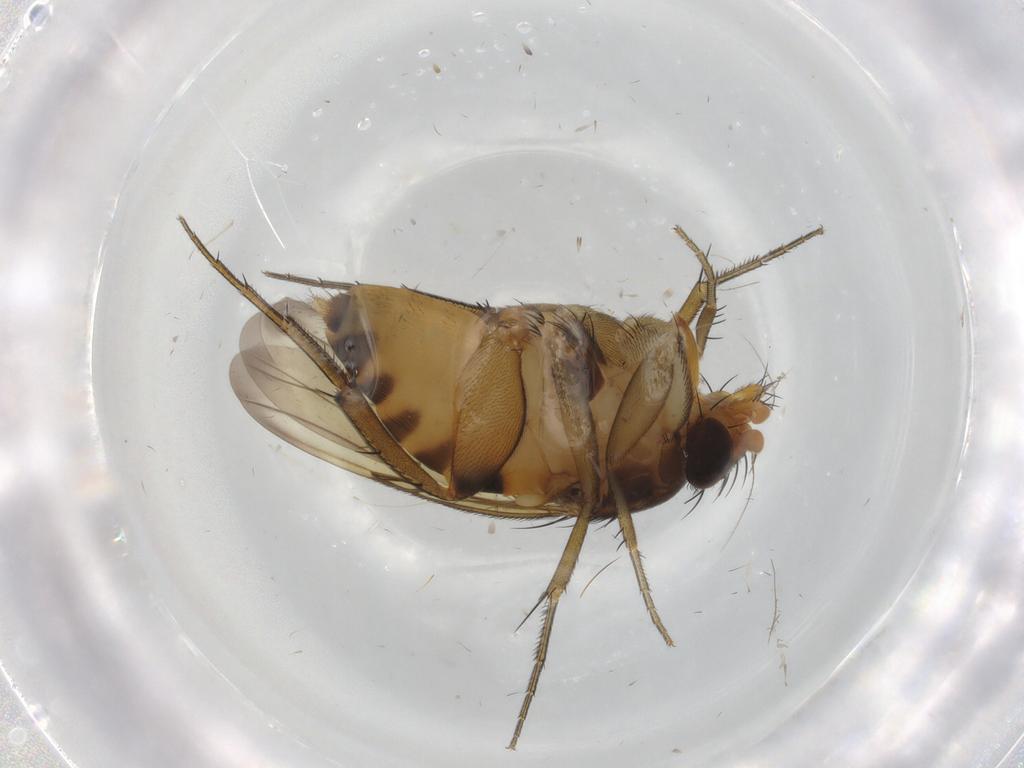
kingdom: Animalia
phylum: Arthropoda
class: Insecta
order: Diptera
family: Phoridae
